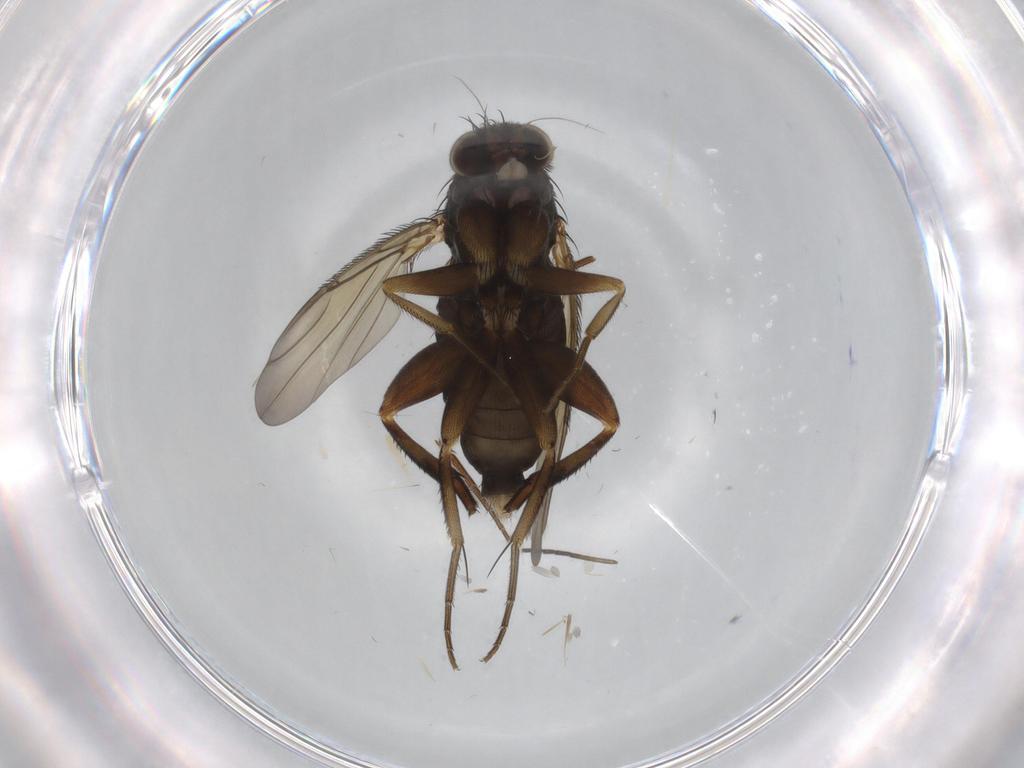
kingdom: Animalia
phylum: Arthropoda
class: Insecta
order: Diptera
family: Phoridae
